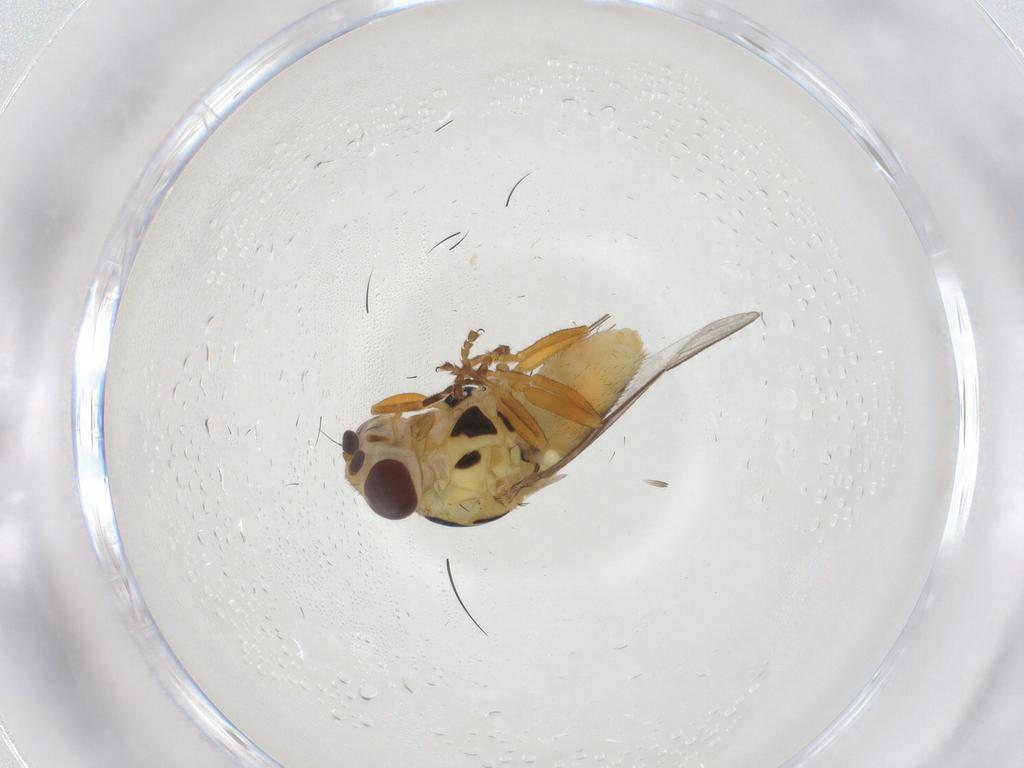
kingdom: Animalia
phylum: Arthropoda
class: Insecta
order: Diptera
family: Chloropidae
